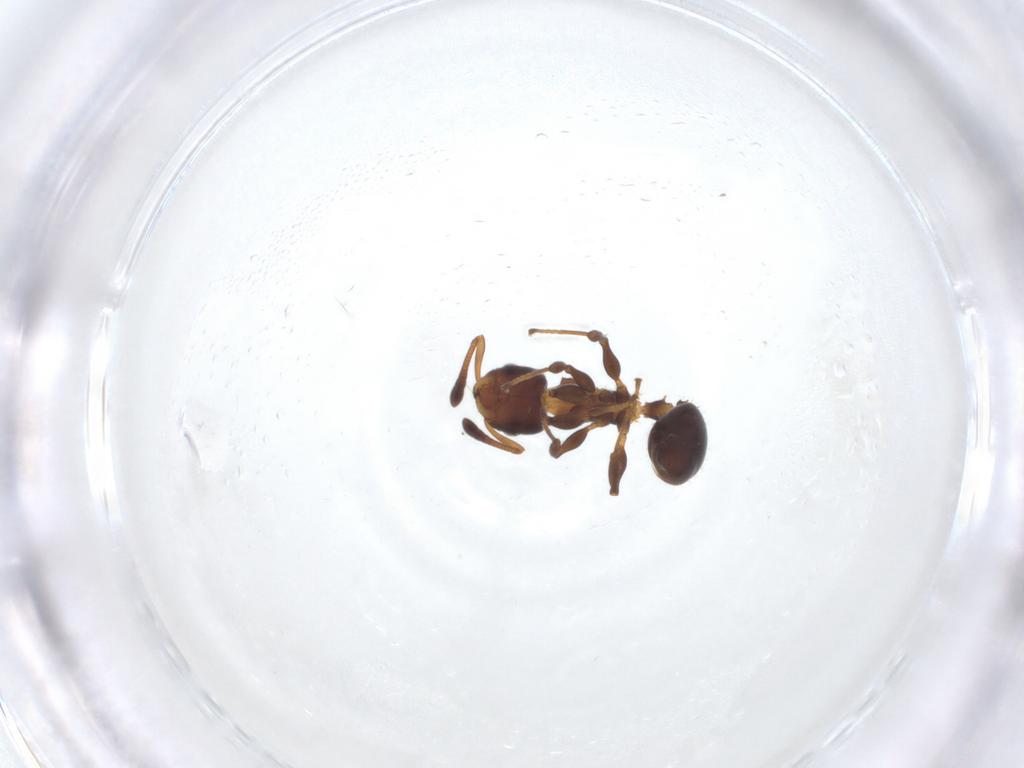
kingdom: Animalia
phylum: Arthropoda
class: Insecta
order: Hymenoptera
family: Formicidae
